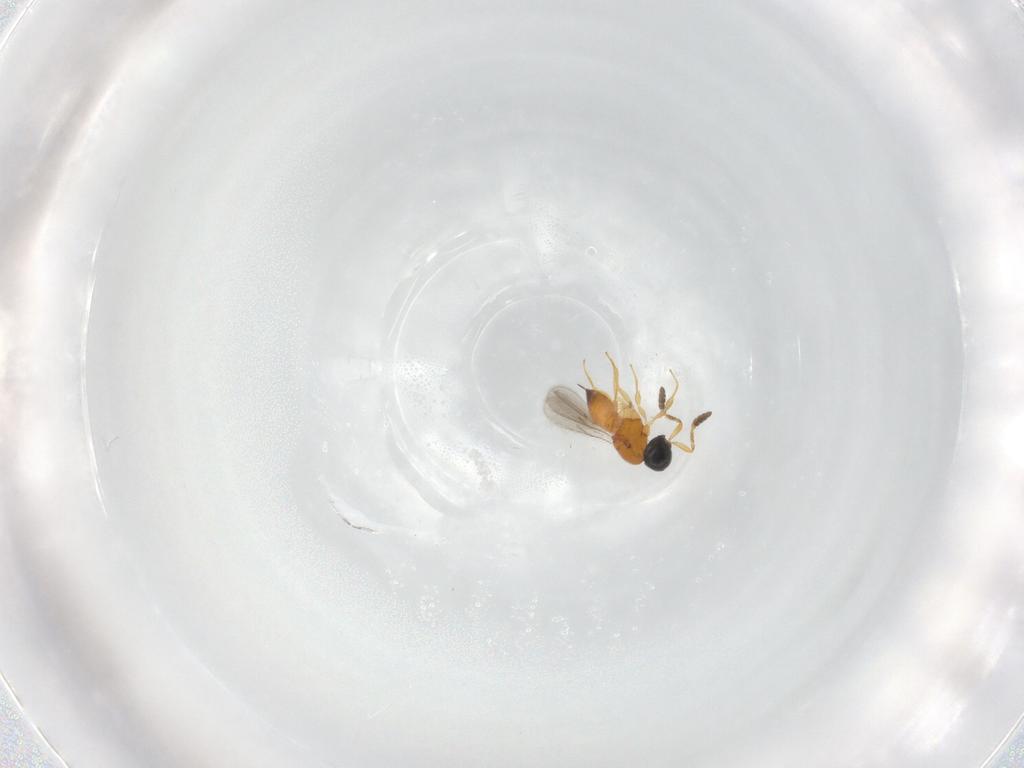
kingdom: Animalia
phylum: Arthropoda
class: Insecta
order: Hymenoptera
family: Scelionidae
